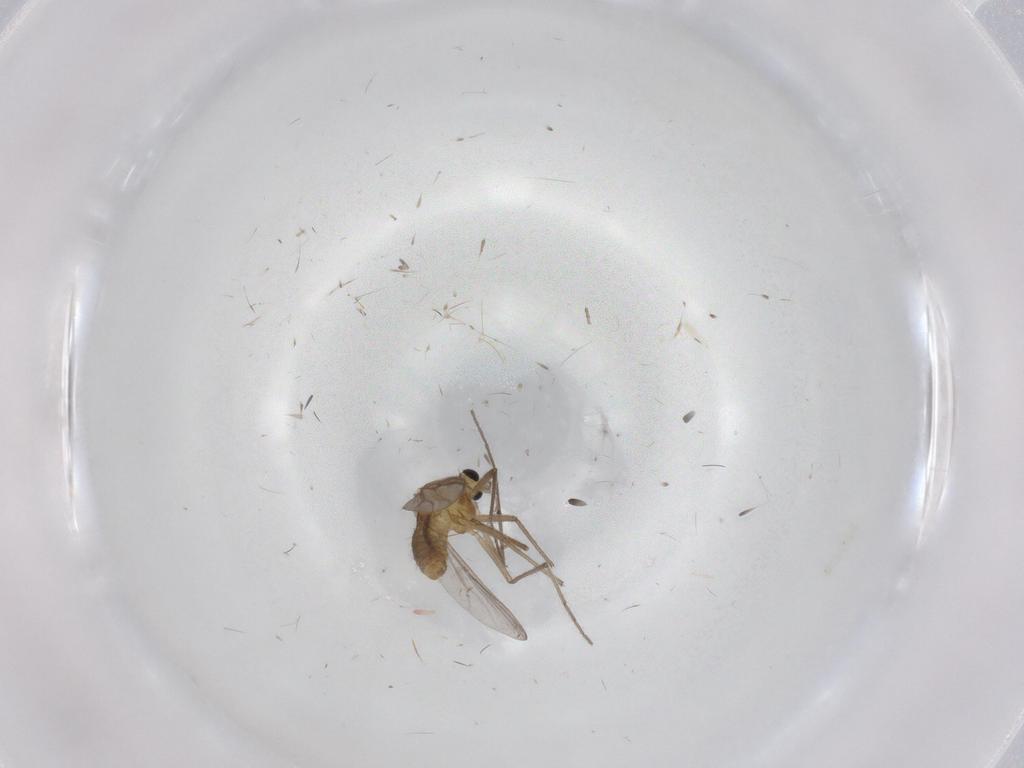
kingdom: Animalia
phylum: Arthropoda
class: Insecta
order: Diptera
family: Chironomidae
